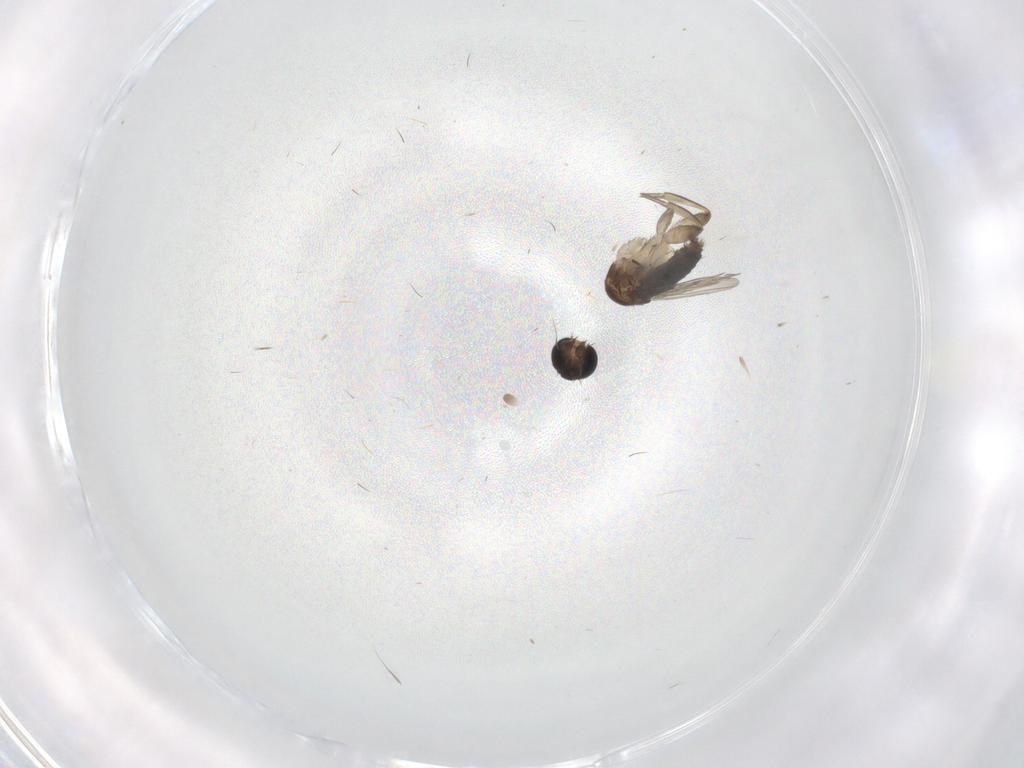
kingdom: Animalia
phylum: Arthropoda
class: Insecta
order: Diptera
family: Phoridae
